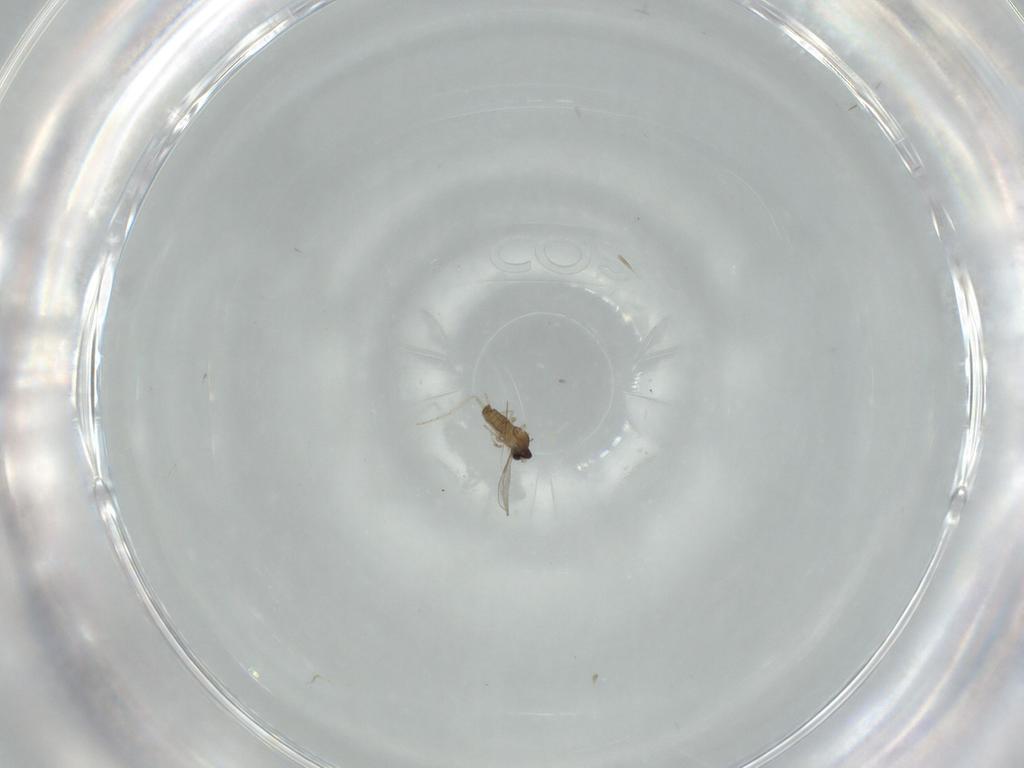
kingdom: Animalia
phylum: Arthropoda
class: Insecta
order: Diptera
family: Cecidomyiidae
